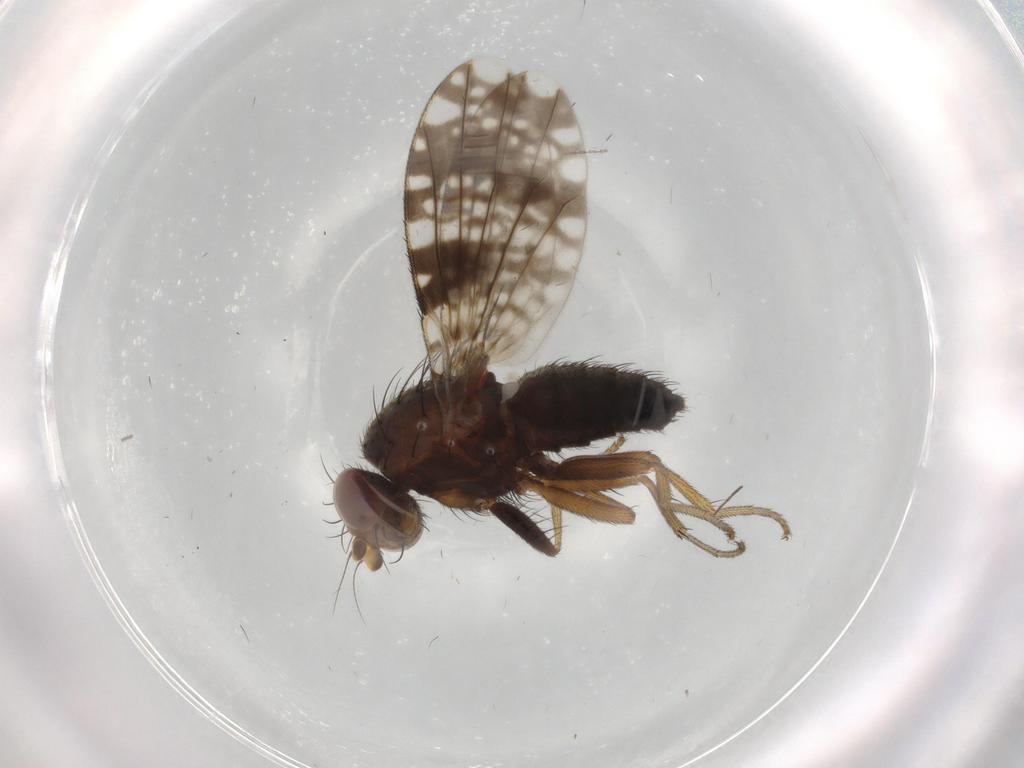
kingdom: Animalia
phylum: Arthropoda
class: Insecta
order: Diptera
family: Tephritidae
